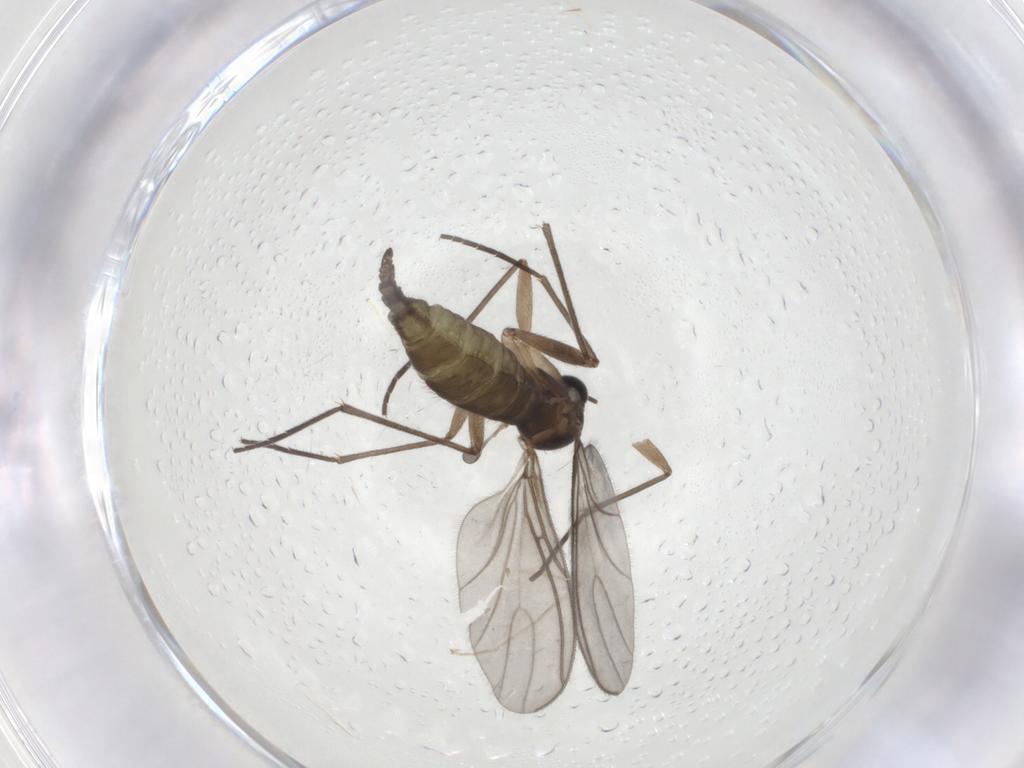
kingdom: Animalia
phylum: Arthropoda
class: Insecta
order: Diptera
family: Sciaridae
